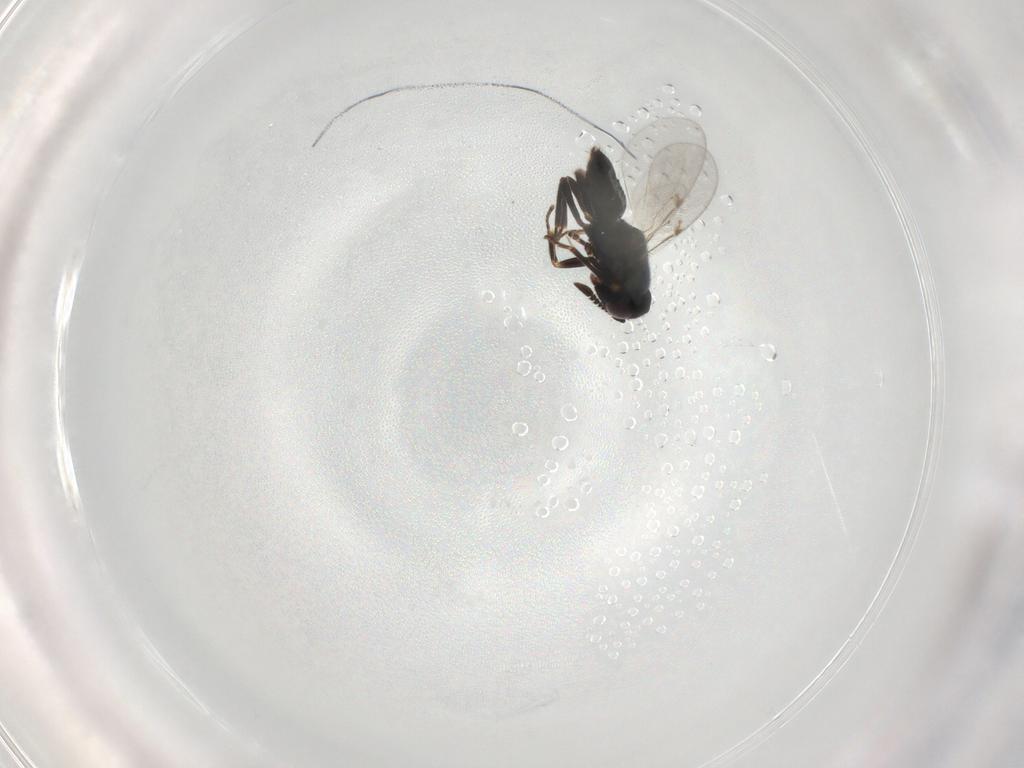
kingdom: Animalia
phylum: Arthropoda
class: Insecta
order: Hymenoptera
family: Encyrtidae
